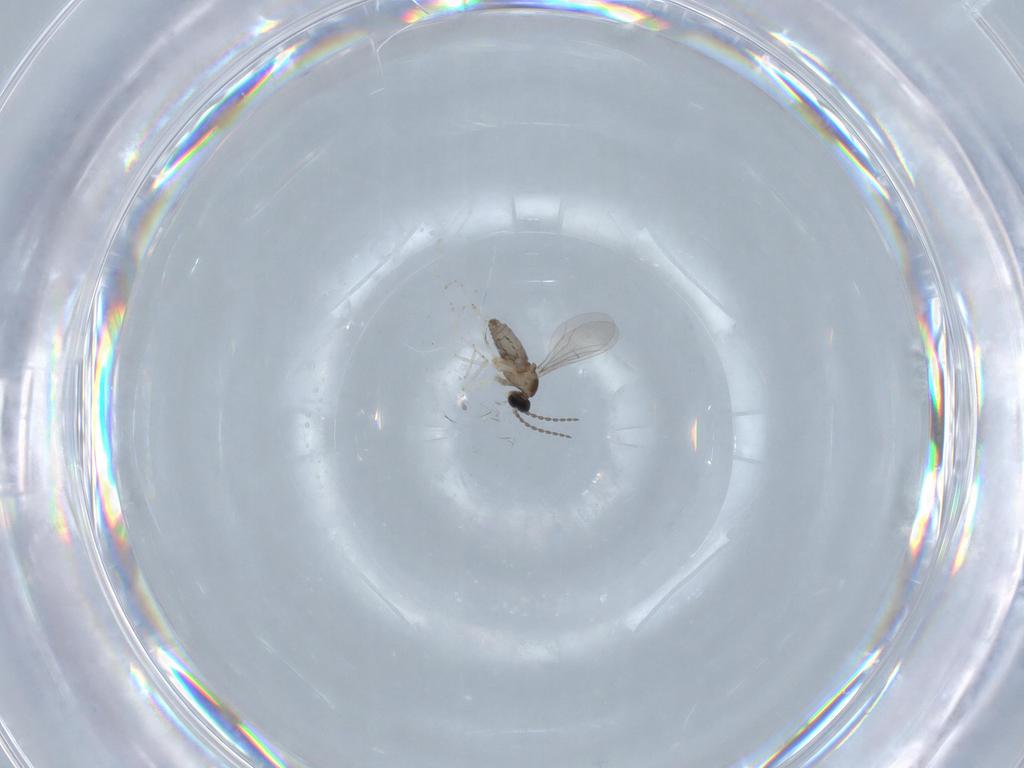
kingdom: Animalia
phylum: Arthropoda
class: Insecta
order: Diptera
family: Cecidomyiidae
